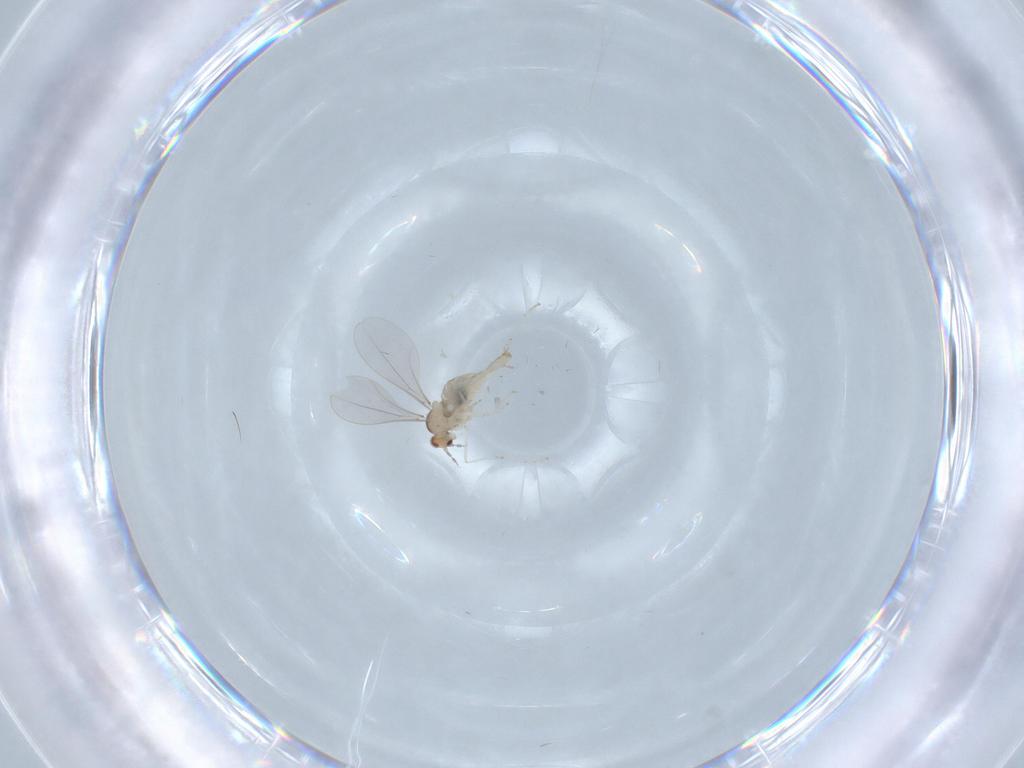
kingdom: Animalia
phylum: Arthropoda
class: Insecta
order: Diptera
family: Cecidomyiidae
